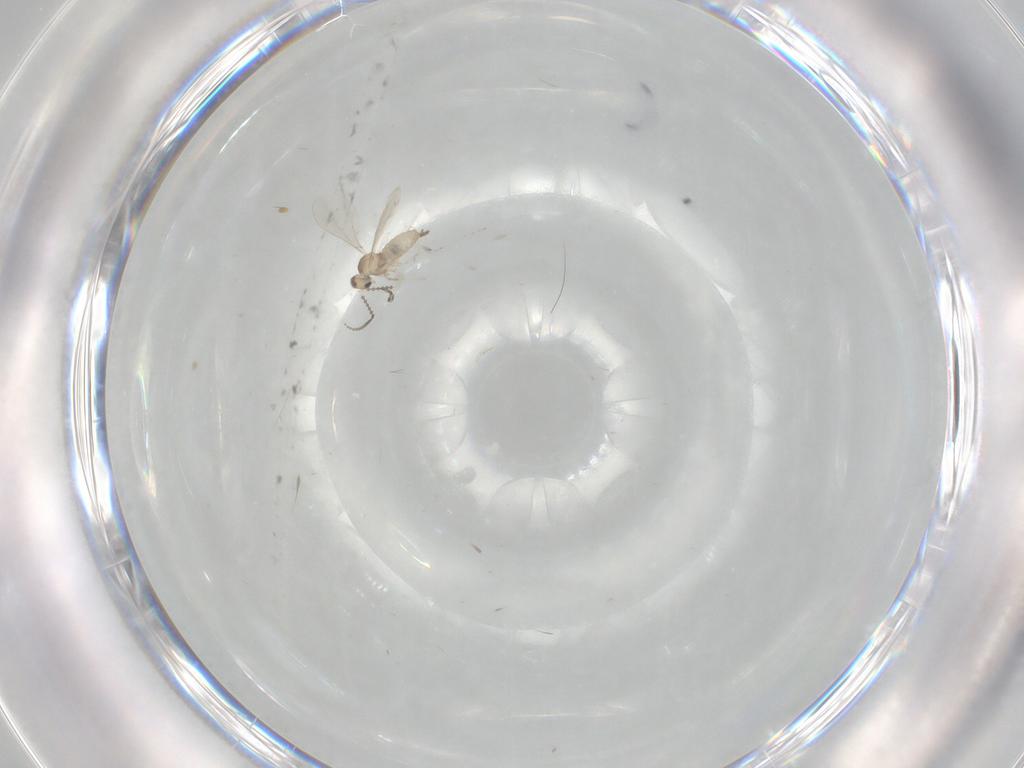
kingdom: Animalia
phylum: Arthropoda
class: Insecta
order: Diptera
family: Cecidomyiidae
